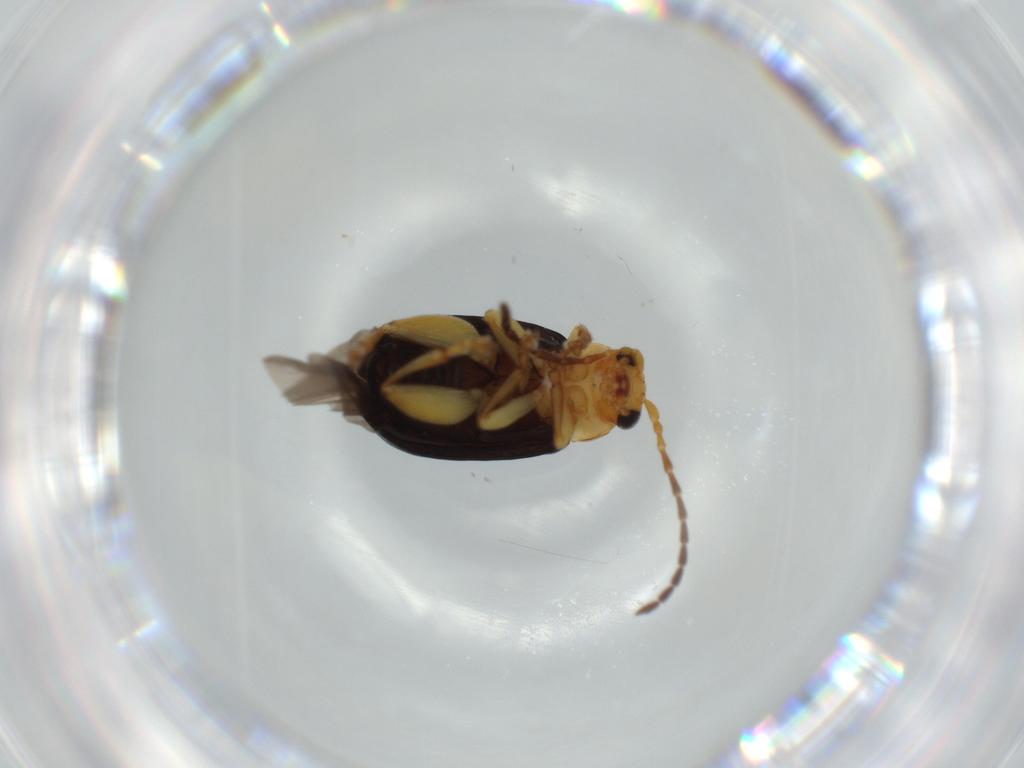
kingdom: Animalia
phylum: Arthropoda
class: Insecta
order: Coleoptera
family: Chrysomelidae
